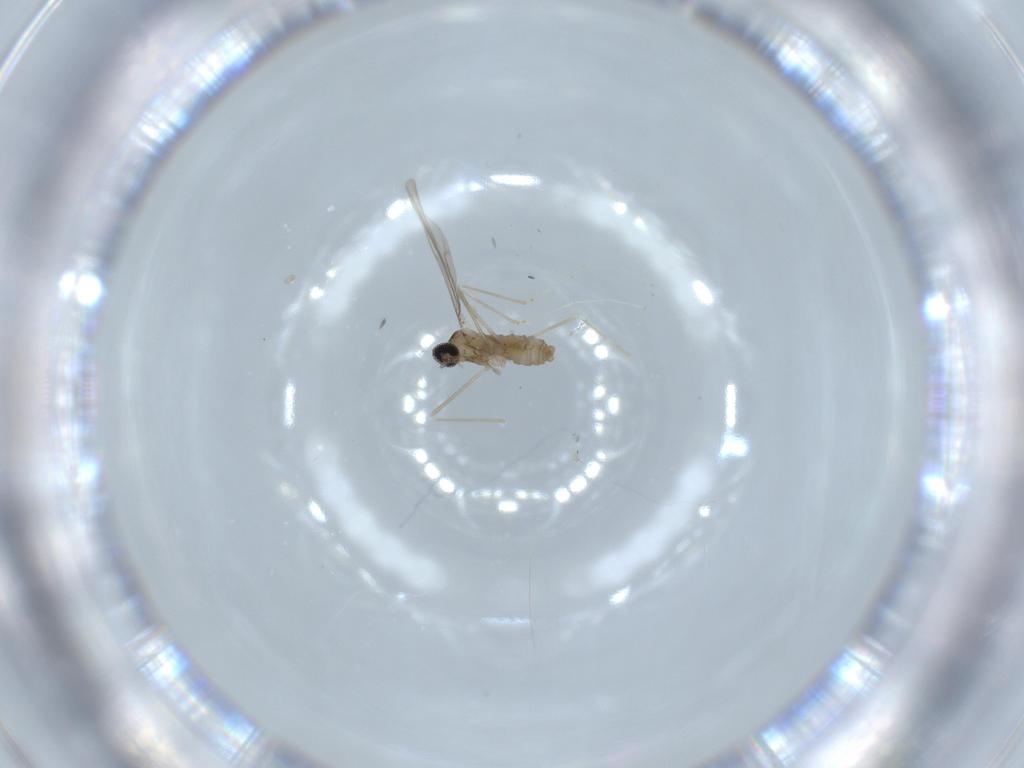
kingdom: Animalia
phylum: Arthropoda
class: Insecta
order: Diptera
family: Cecidomyiidae
